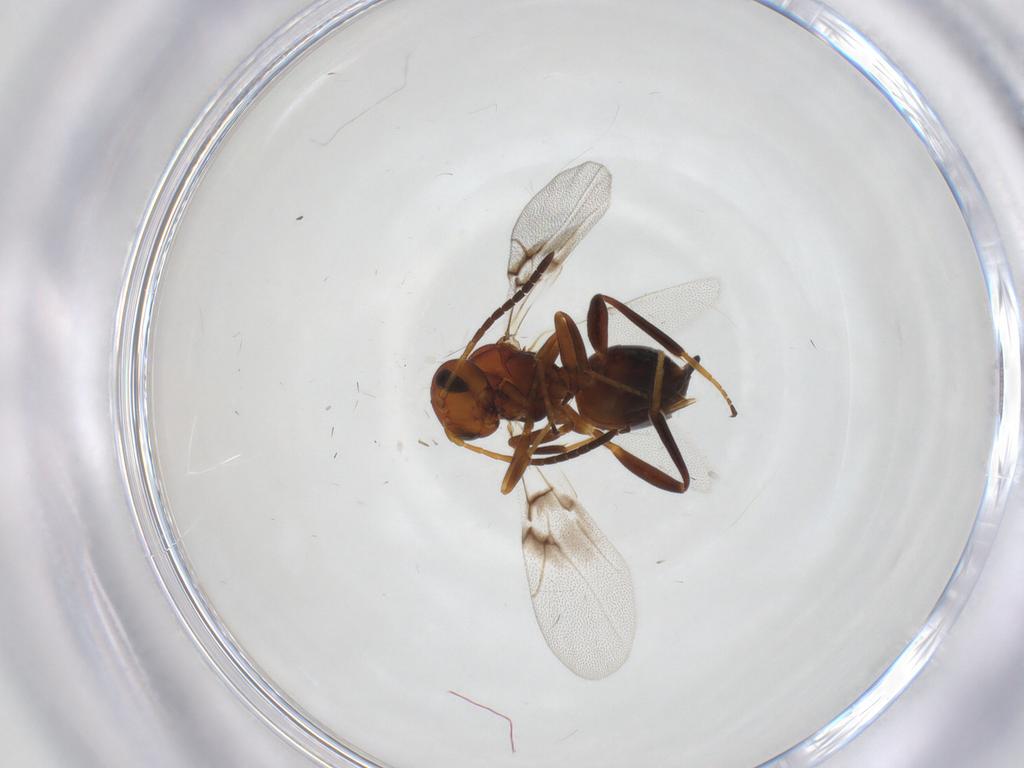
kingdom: Animalia
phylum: Arthropoda
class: Insecta
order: Hymenoptera
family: Cynipidae
